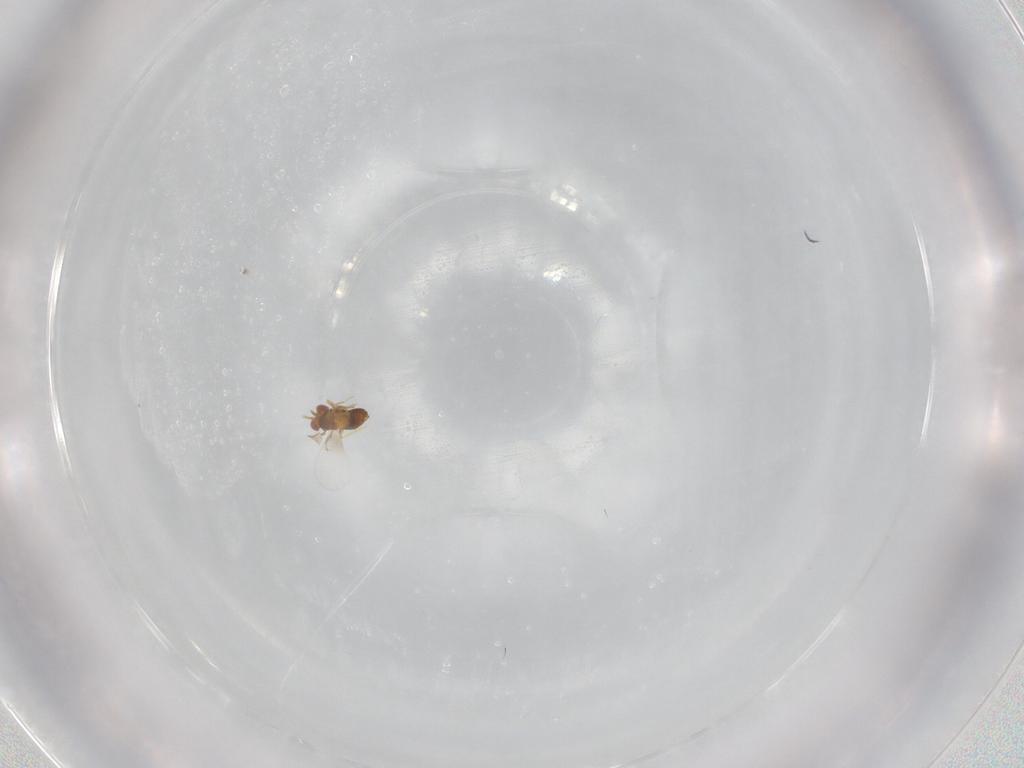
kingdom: Animalia
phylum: Arthropoda
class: Insecta
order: Hymenoptera
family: Trichogrammatidae
